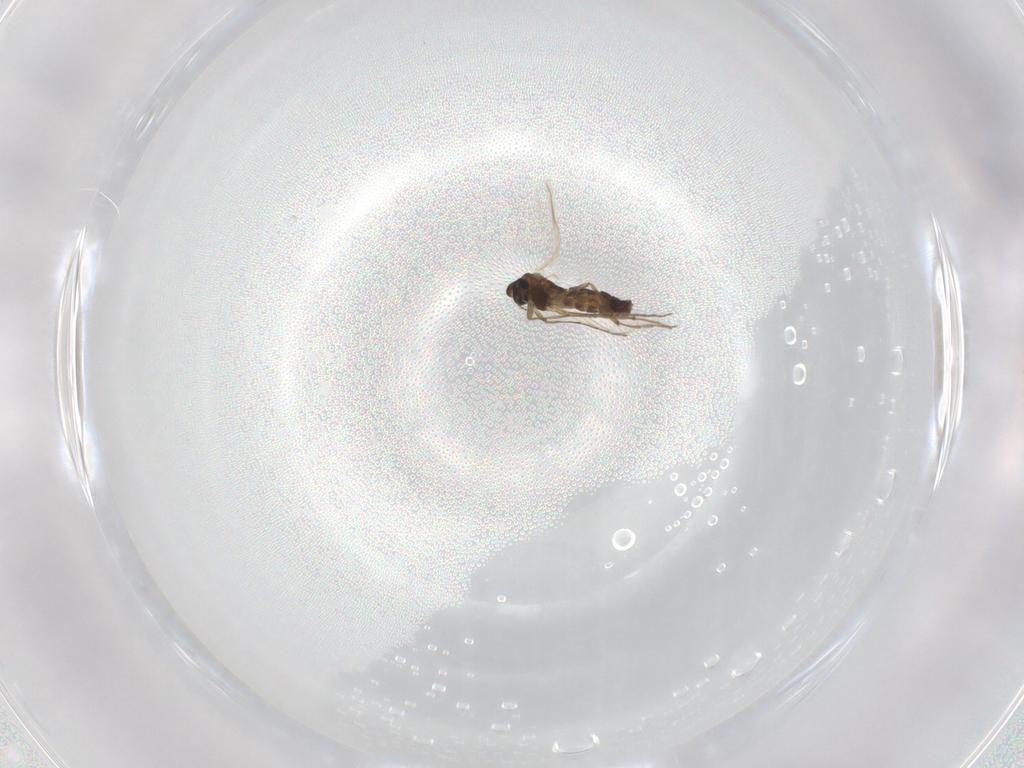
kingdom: Animalia
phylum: Arthropoda
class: Insecta
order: Diptera
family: Chironomidae
